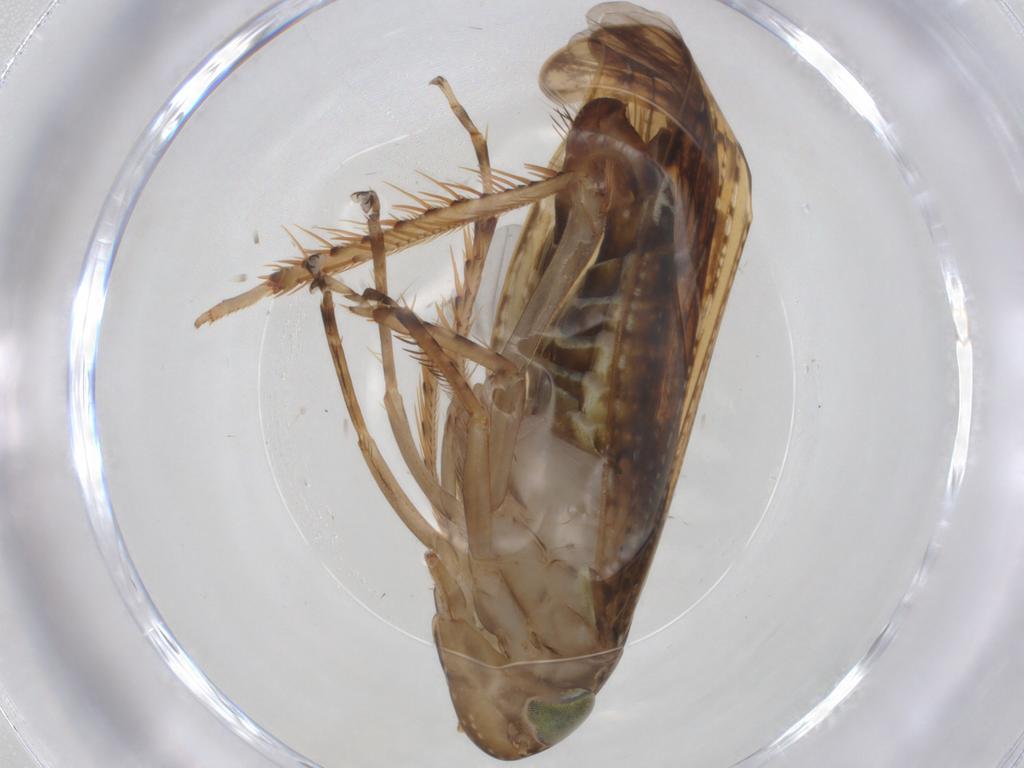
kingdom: Animalia
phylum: Arthropoda
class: Insecta
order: Hemiptera
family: Cicadellidae
